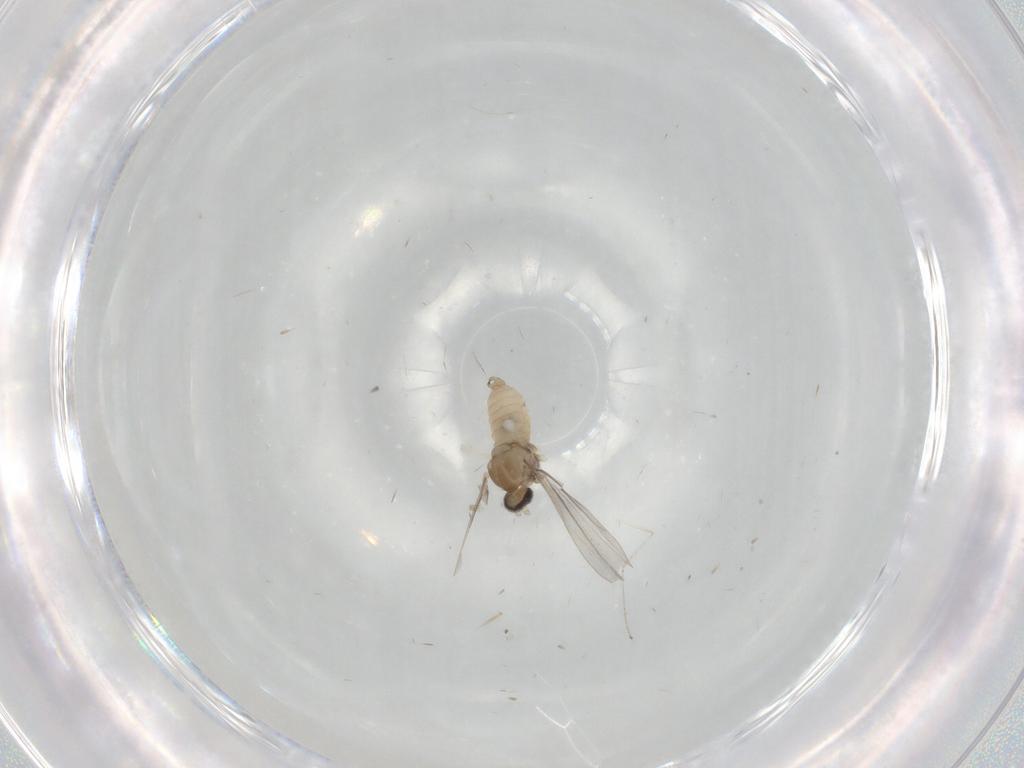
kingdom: Animalia
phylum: Arthropoda
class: Insecta
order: Diptera
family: Cecidomyiidae
